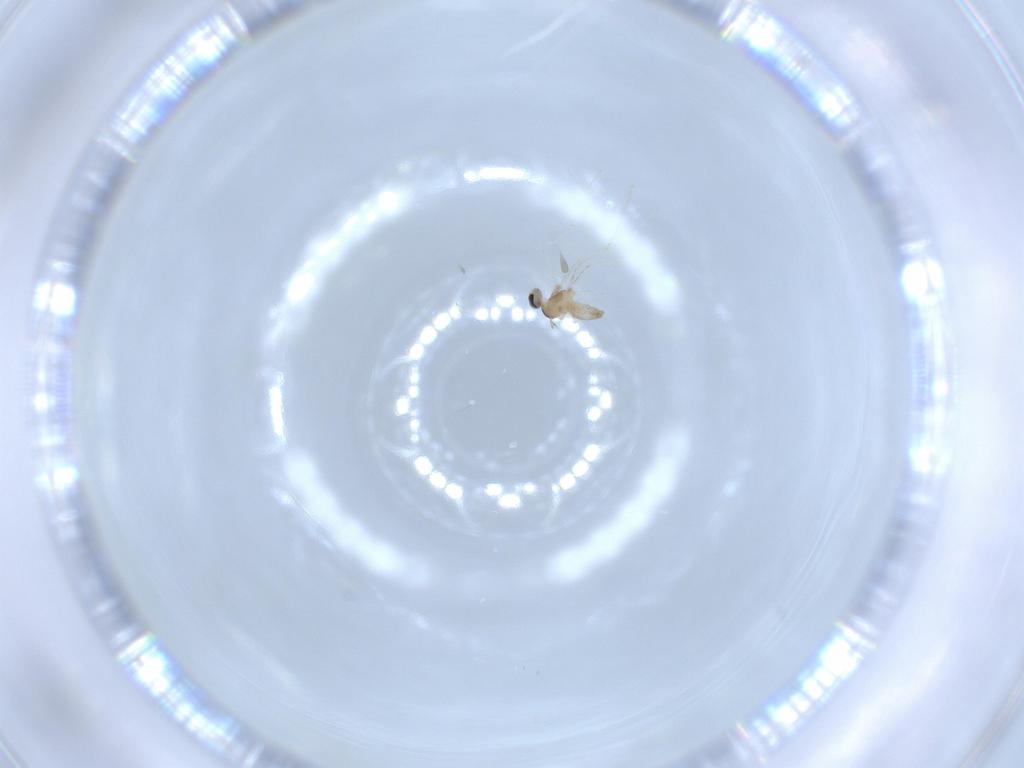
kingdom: Animalia
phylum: Arthropoda
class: Insecta
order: Diptera
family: Cecidomyiidae
